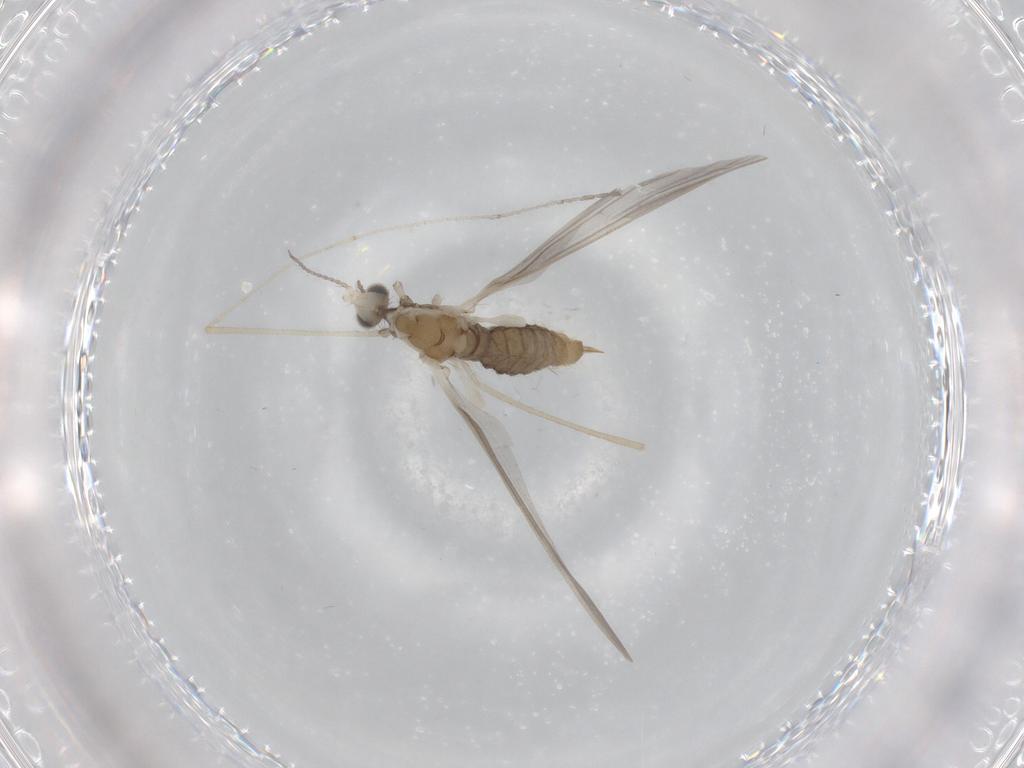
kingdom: Animalia
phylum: Arthropoda
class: Insecta
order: Diptera
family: Limoniidae
